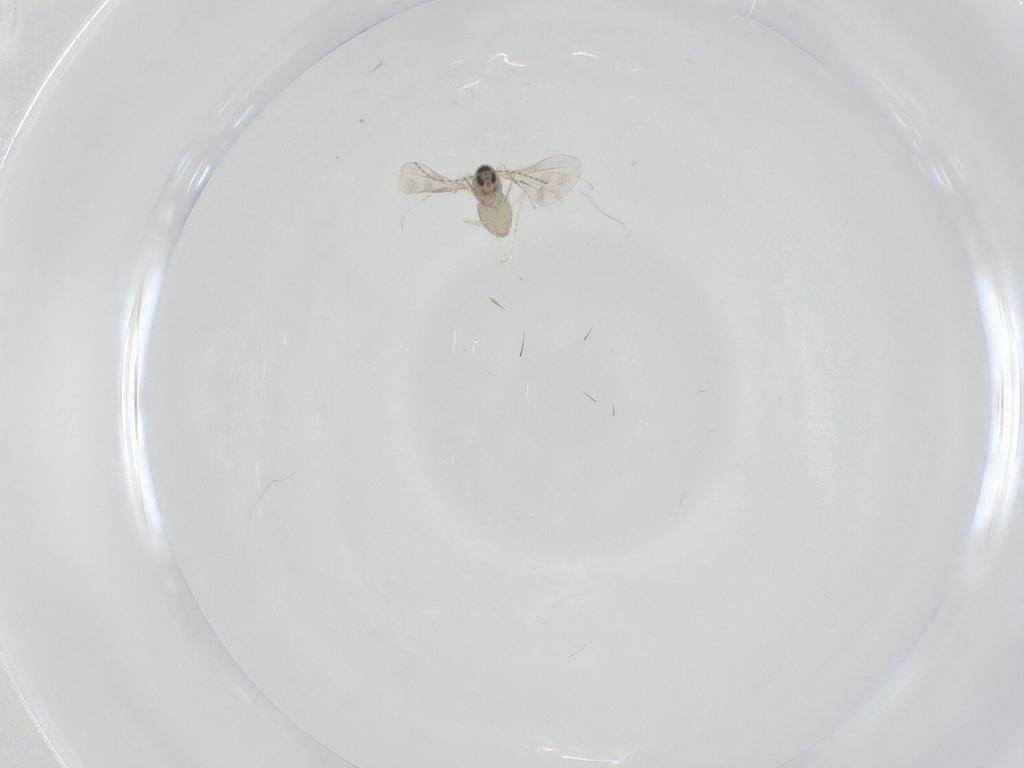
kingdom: Animalia
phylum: Arthropoda
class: Insecta
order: Diptera
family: Cecidomyiidae
